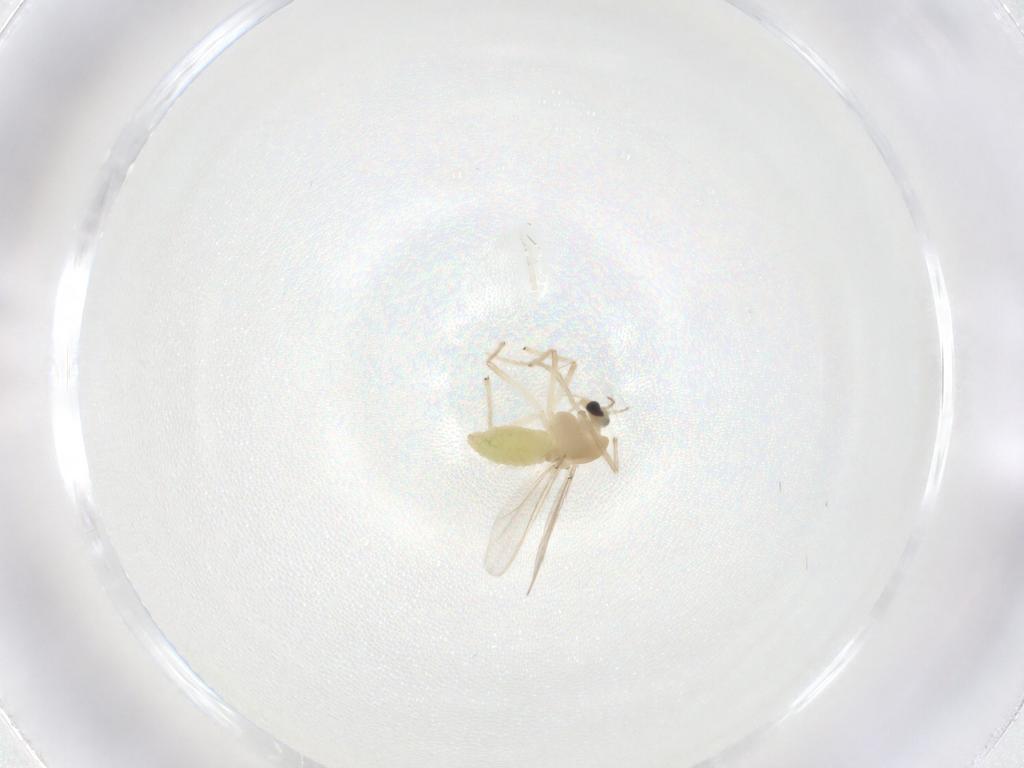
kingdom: Animalia
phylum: Arthropoda
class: Insecta
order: Diptera
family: Chironomidae
